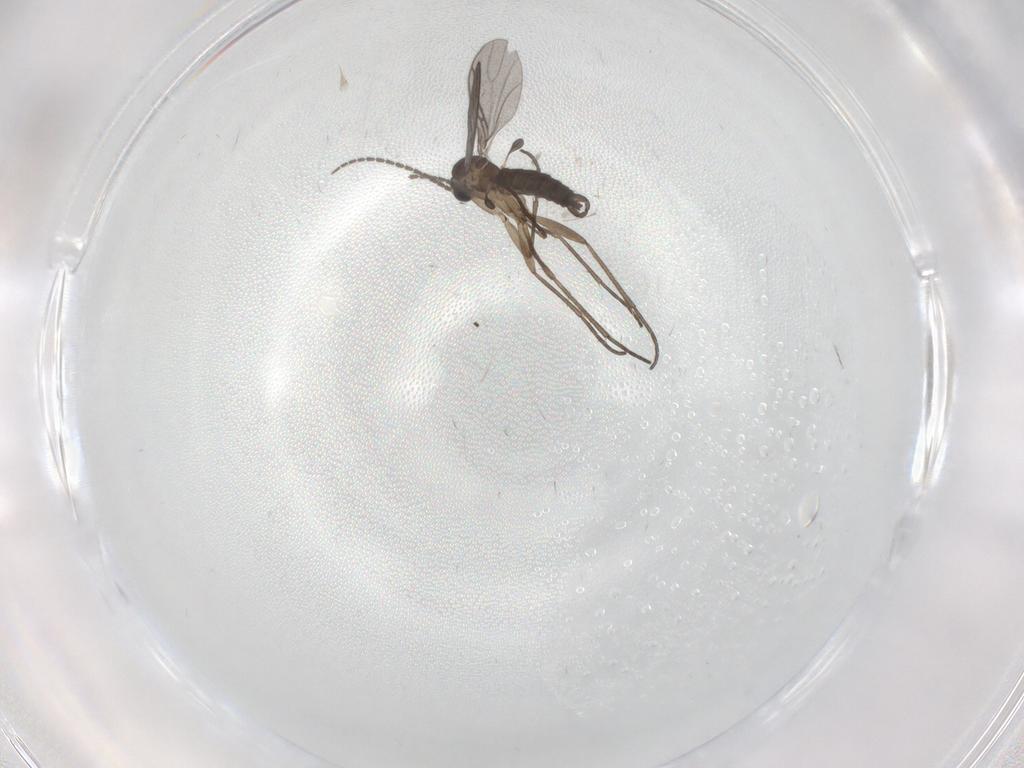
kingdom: Animalia
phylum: Arthropoda
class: Insecta
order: Diptera
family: Cecidomyiidae
